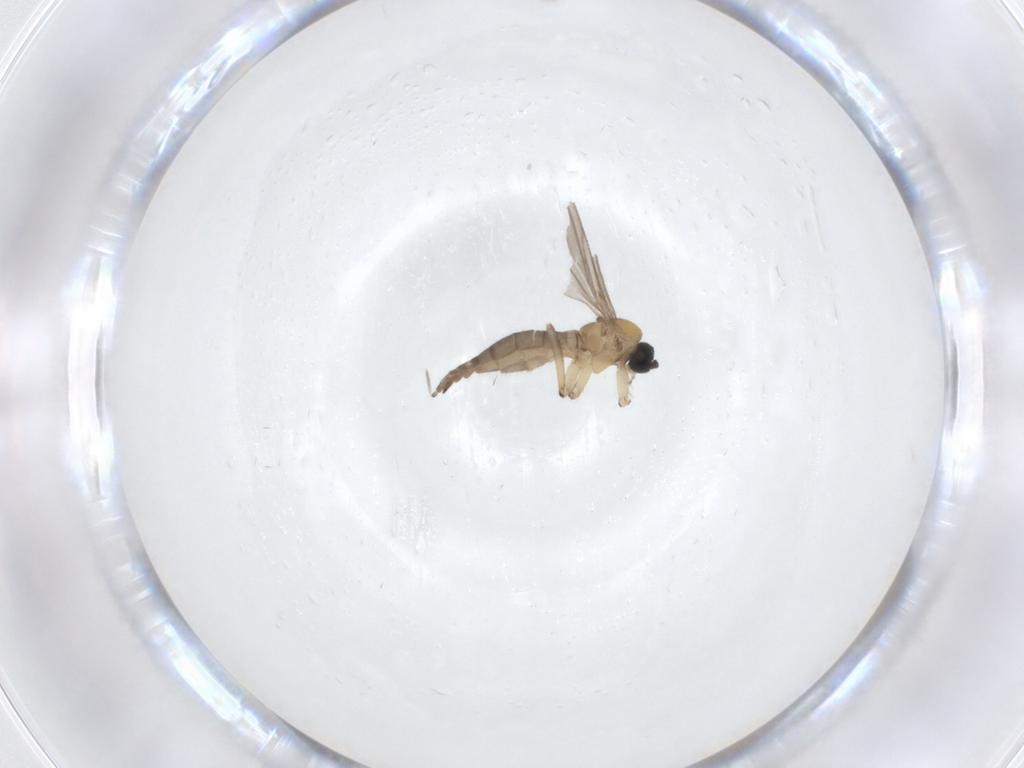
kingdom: Animalia
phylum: Arthropoda
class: Insecta
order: Diptera
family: Sciaridae
